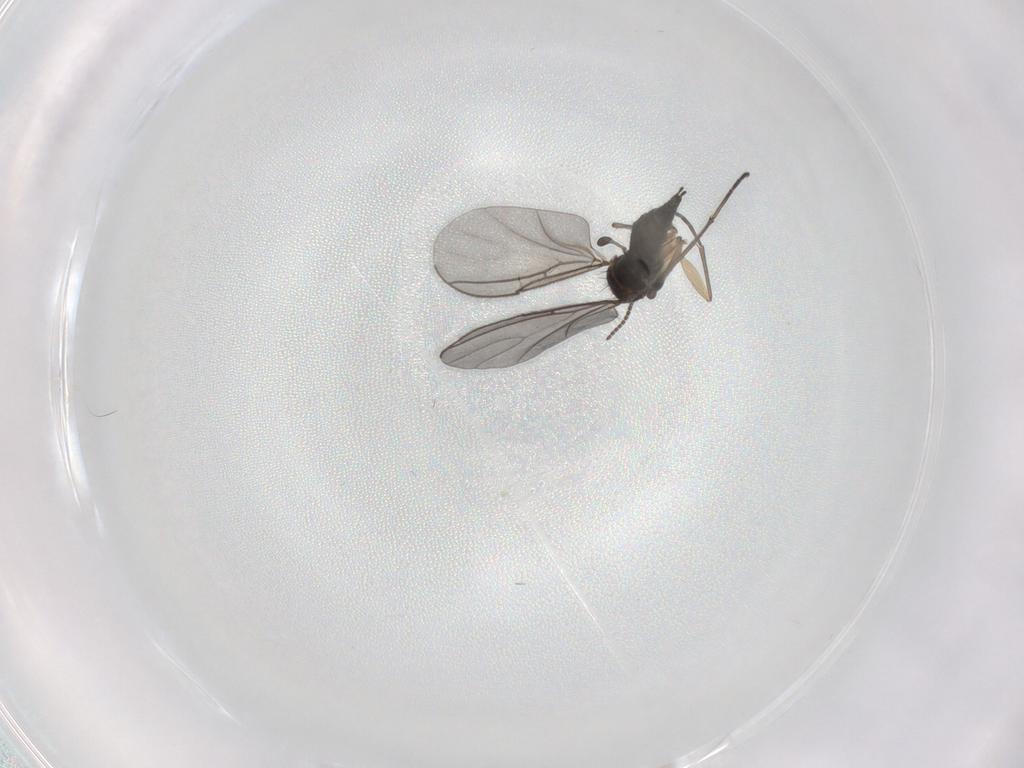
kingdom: Animalia
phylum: Arthropoda
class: Insecta
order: Diptera
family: Sciaridae
